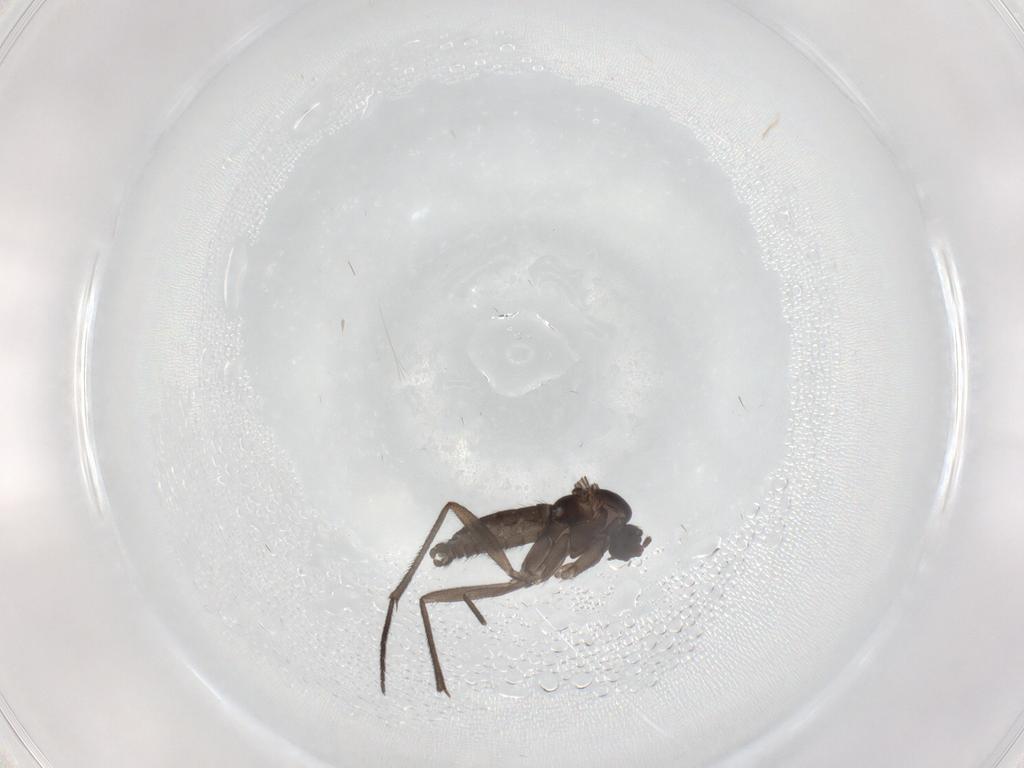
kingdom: Animalia
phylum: Arthropoda
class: Insecta
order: Diptera
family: Sciaridae
